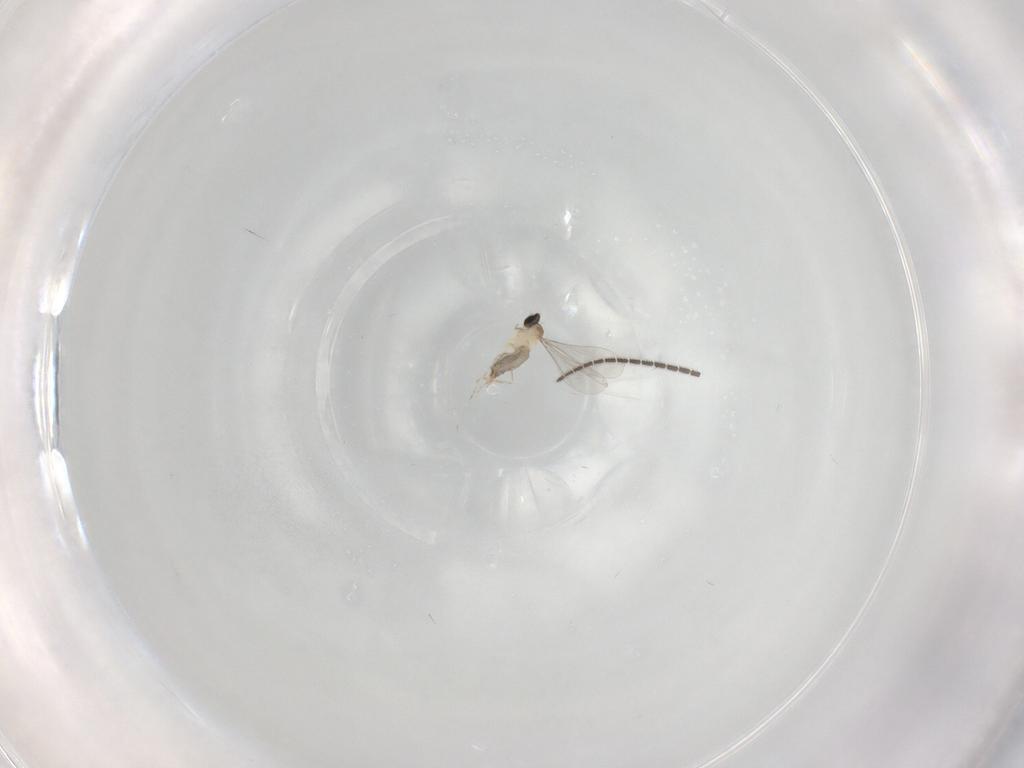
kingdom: Animalia
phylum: Arthropoda
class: Insecta
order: Diptera
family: Cecidomyiidae
